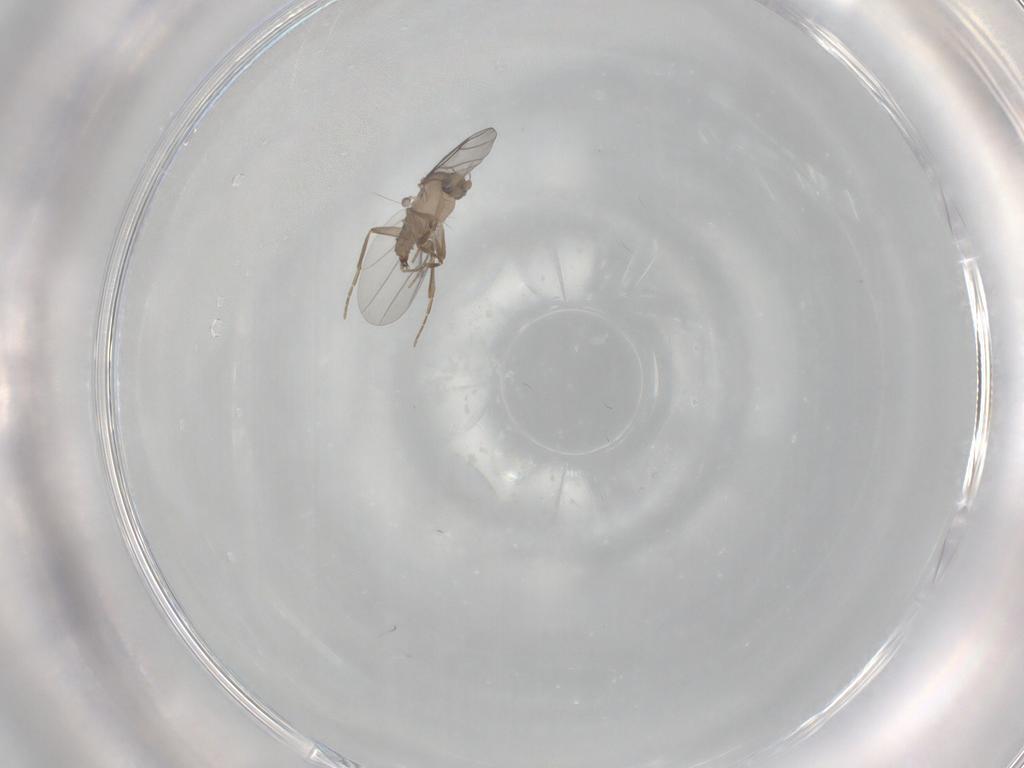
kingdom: Animalia
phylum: Arthropoda
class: Insecta
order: Diptera
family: Cecidomyiidae
